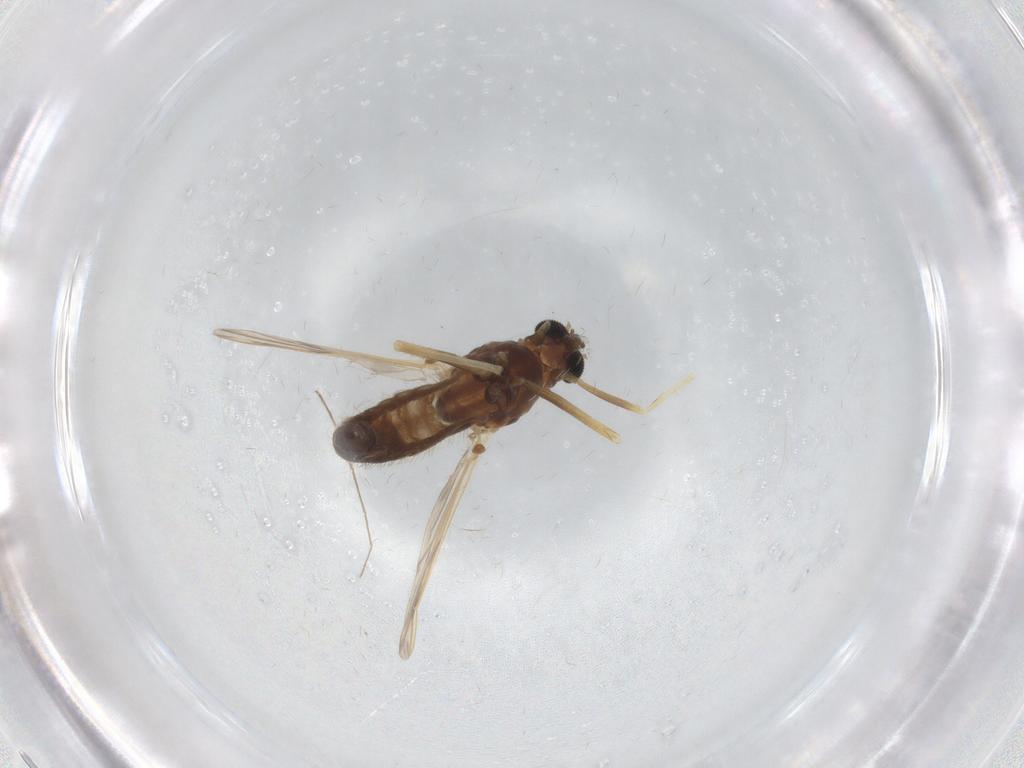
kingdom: Animalia
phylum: Arthropoda
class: Insecta
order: Diptera
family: Chironomidae
